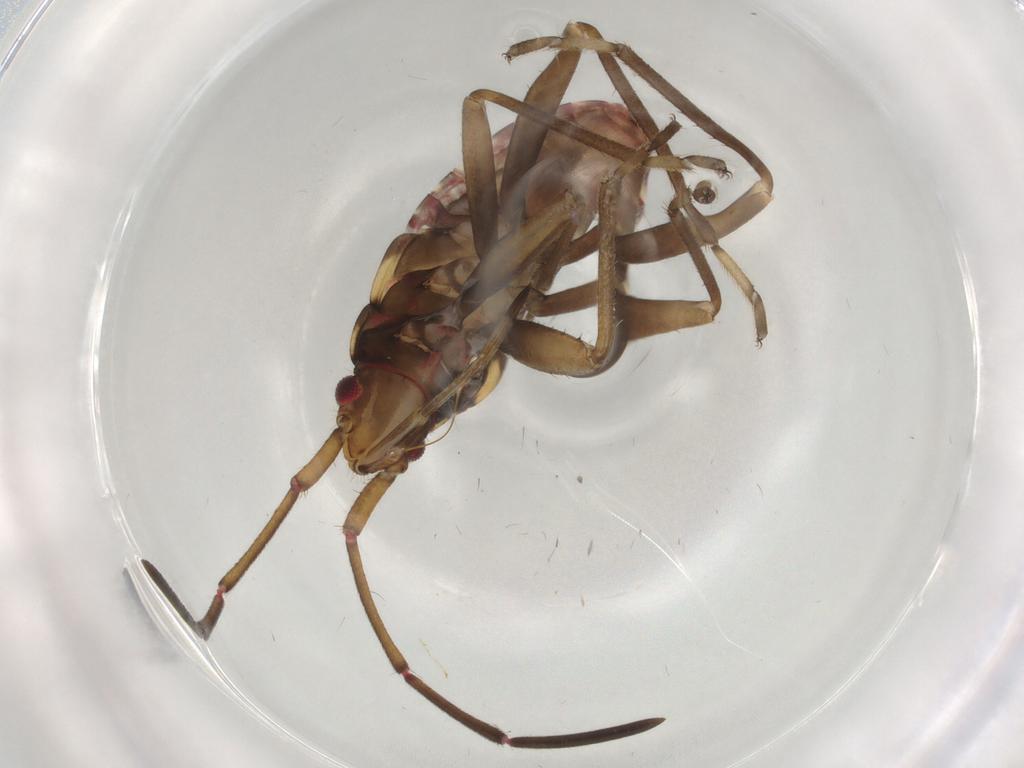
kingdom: Animalia
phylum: Arthropoda
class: Insecta
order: Hemiptera
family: Rhyparochromidae
